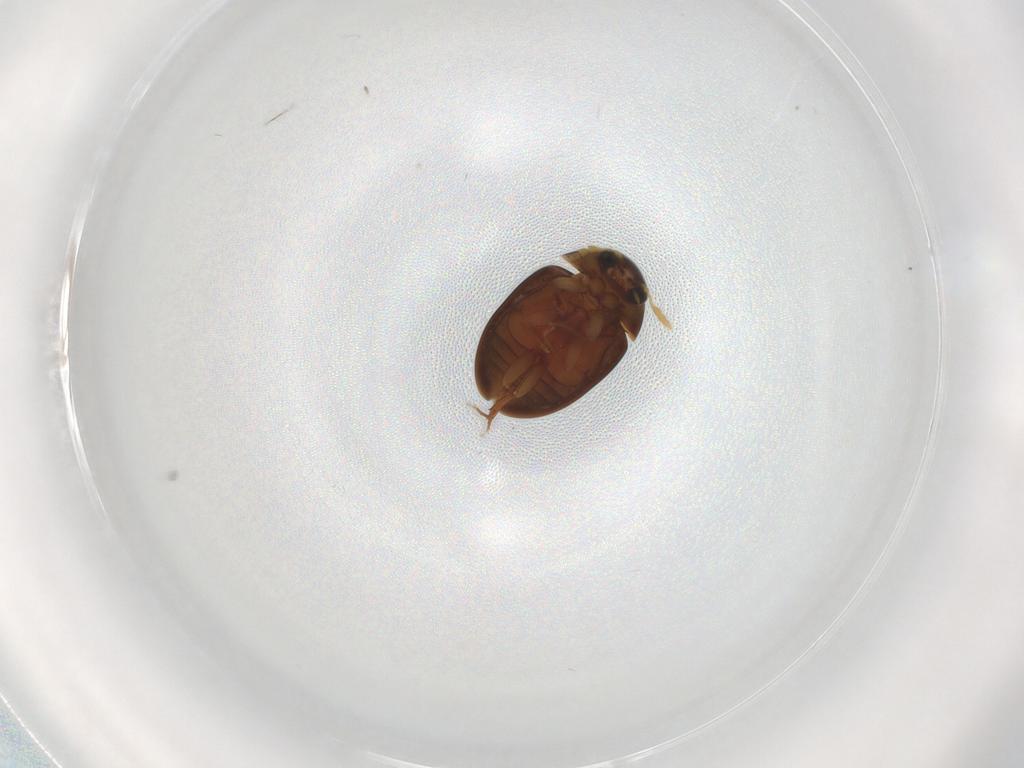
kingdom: Animalia
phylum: Arthropoda
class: Insecta
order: Coleoptera
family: Phalacridae
